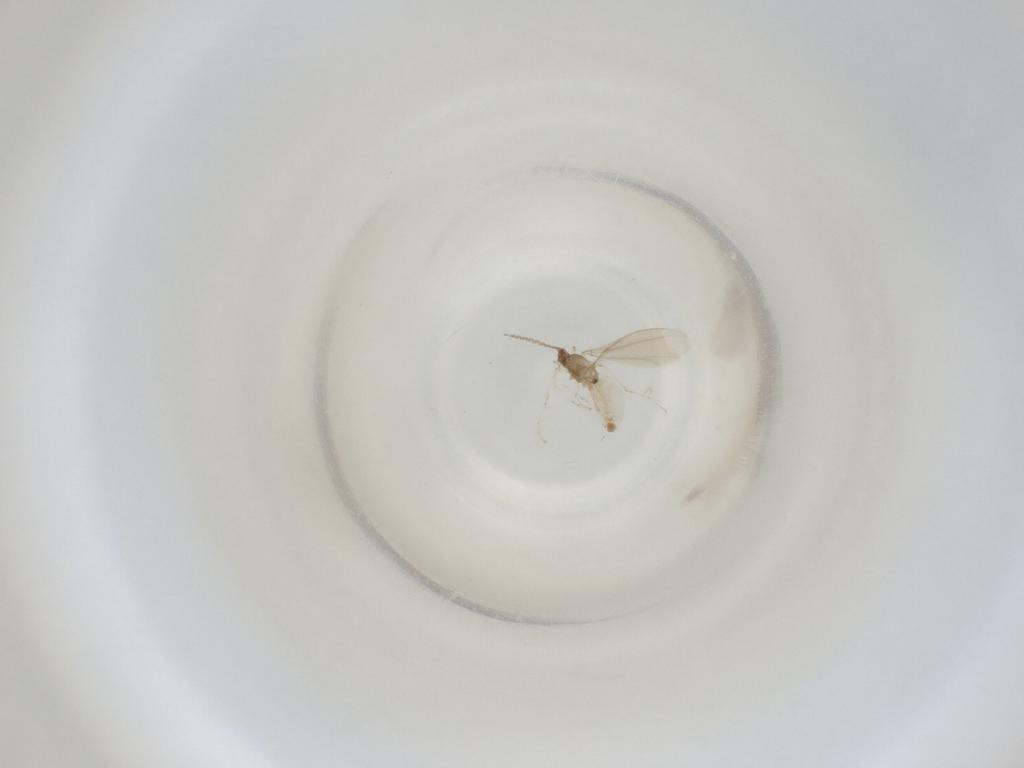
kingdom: Animalia
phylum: Arthropoda
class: Insecta
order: Diptera
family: Cecidomyiidae
